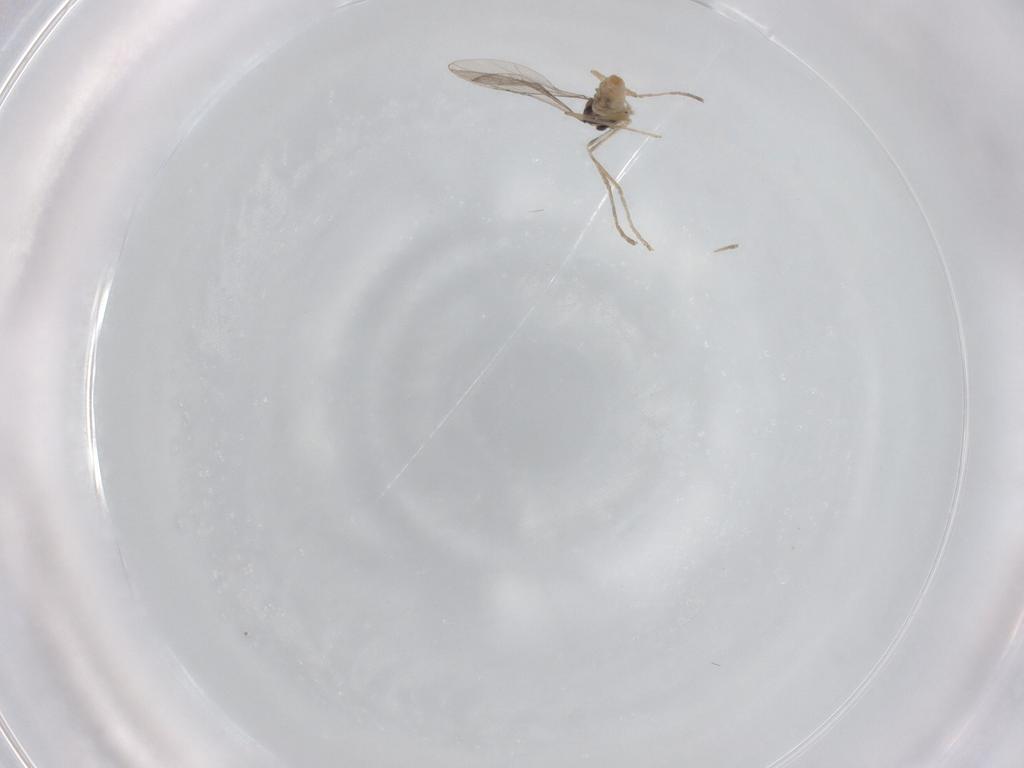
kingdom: Animalia
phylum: Arthropoda
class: Insecta
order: Diptera
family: Cecidomyiidae
